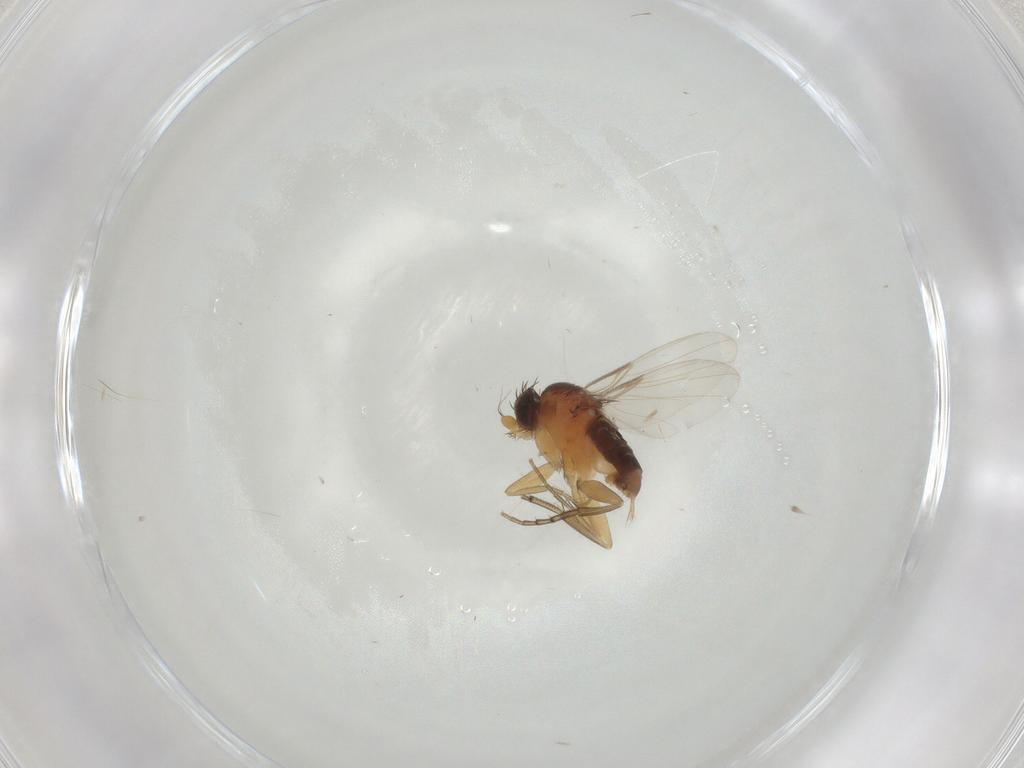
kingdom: Animalia
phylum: Arthropoda
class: Insecta
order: Diptera
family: Phoridae
